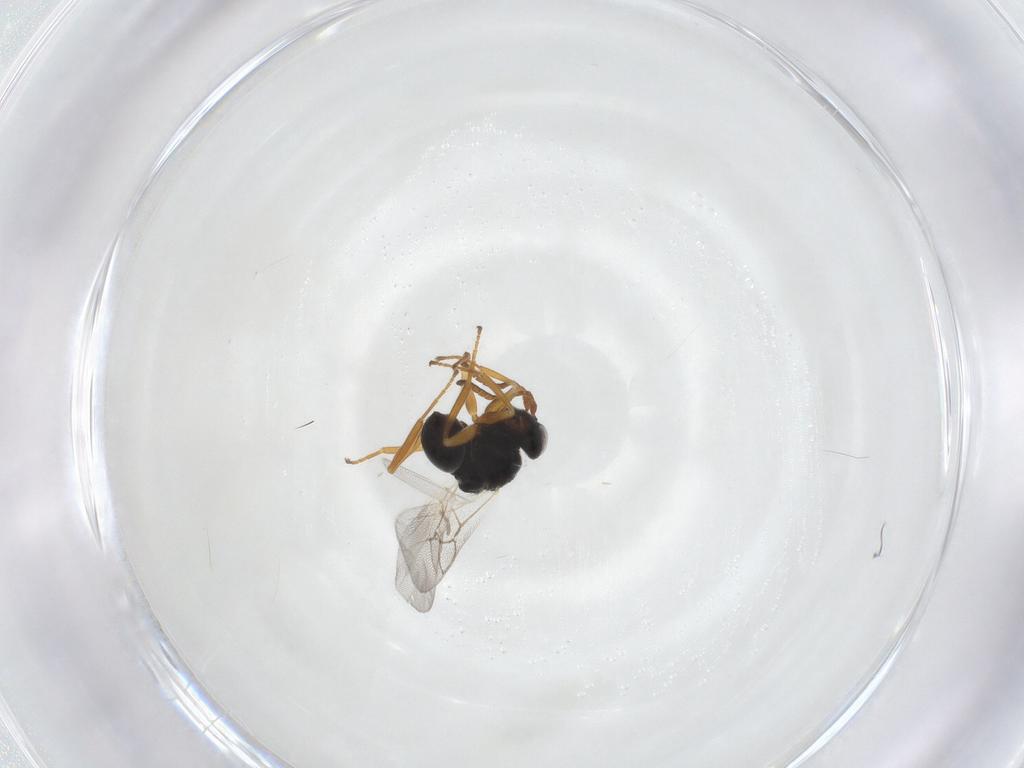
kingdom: Animalia
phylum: Arthropoda
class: Insecta
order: Hymenoptera
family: Cynipidae
